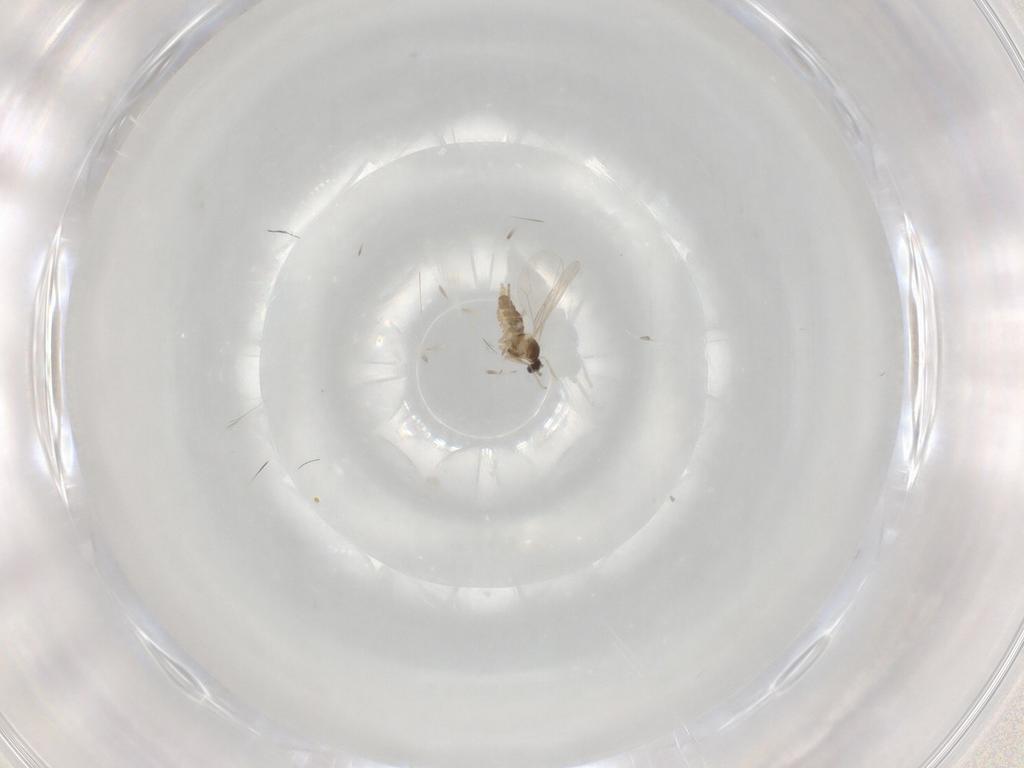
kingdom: Animalia
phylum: Arthropoda
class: Insecta
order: Diptera
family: Cecidomyiidae
